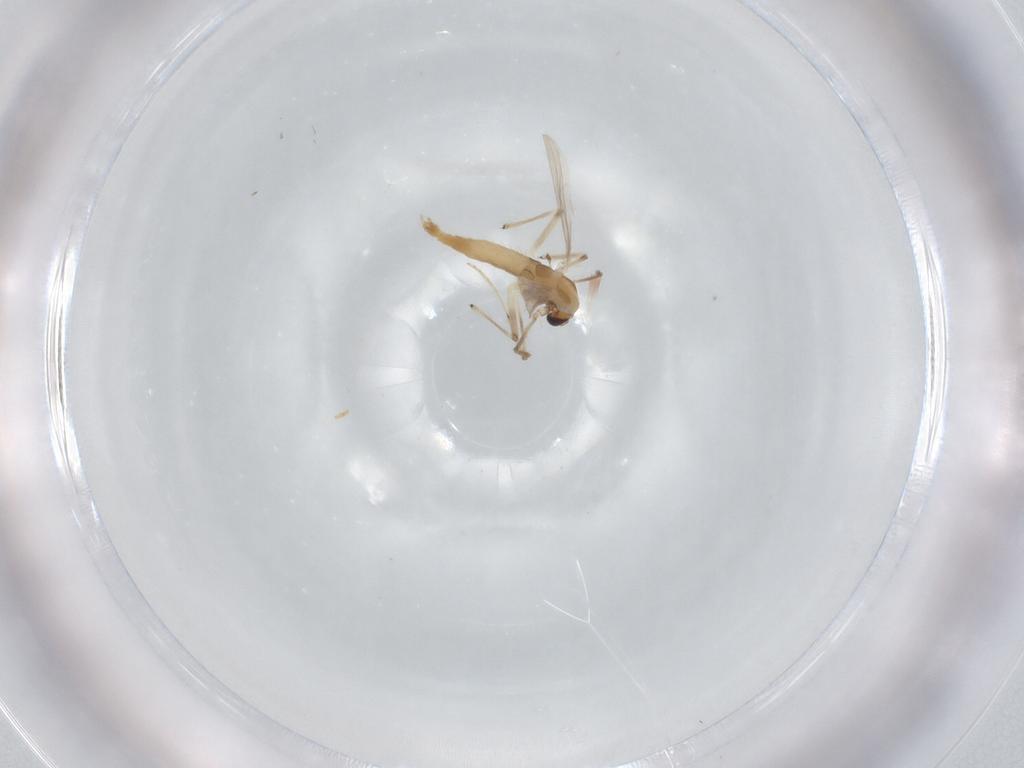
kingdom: Animalia
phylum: Arthropoda
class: Insecta
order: Diptera
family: Chironomidae
